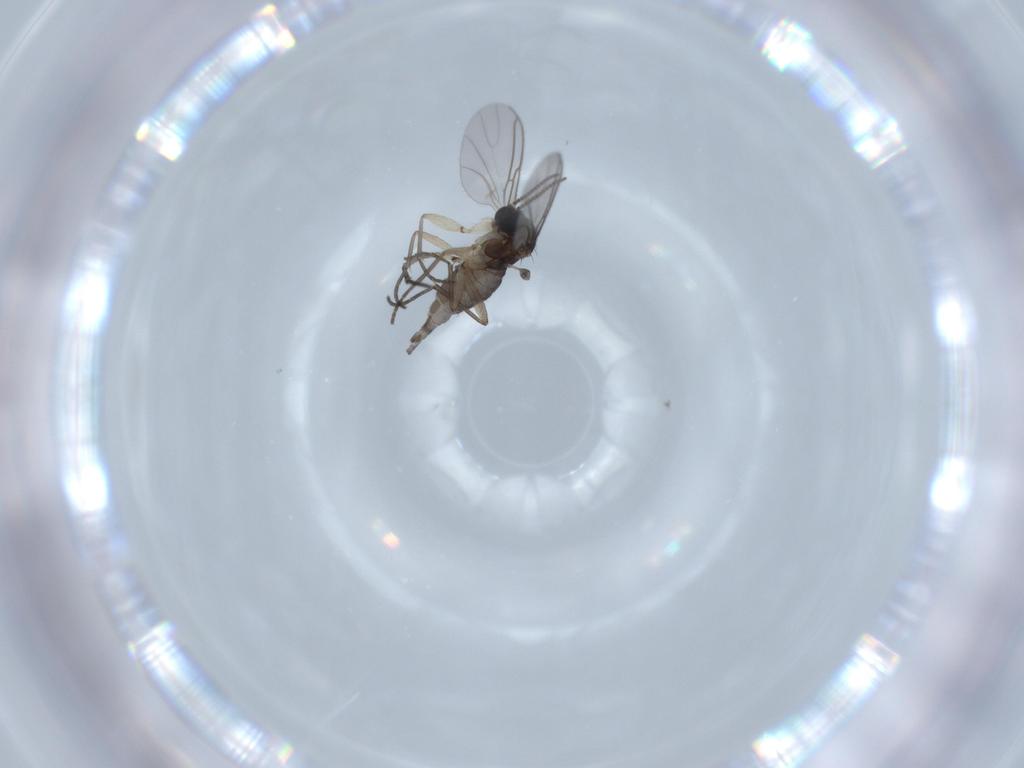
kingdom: Animalia
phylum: Arthropoda
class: Insecta
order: Diptera
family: Sciaridae
